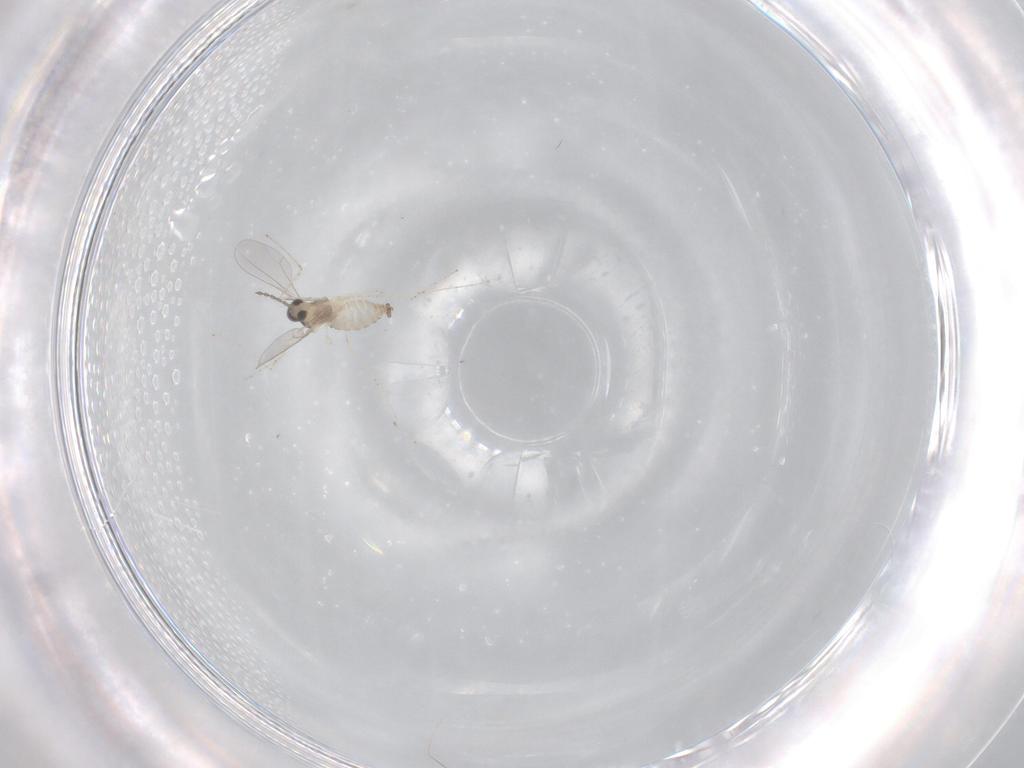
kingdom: Animalia
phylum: Arthropoda
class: Insecta
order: Diptera
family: Cecidomyiidae
